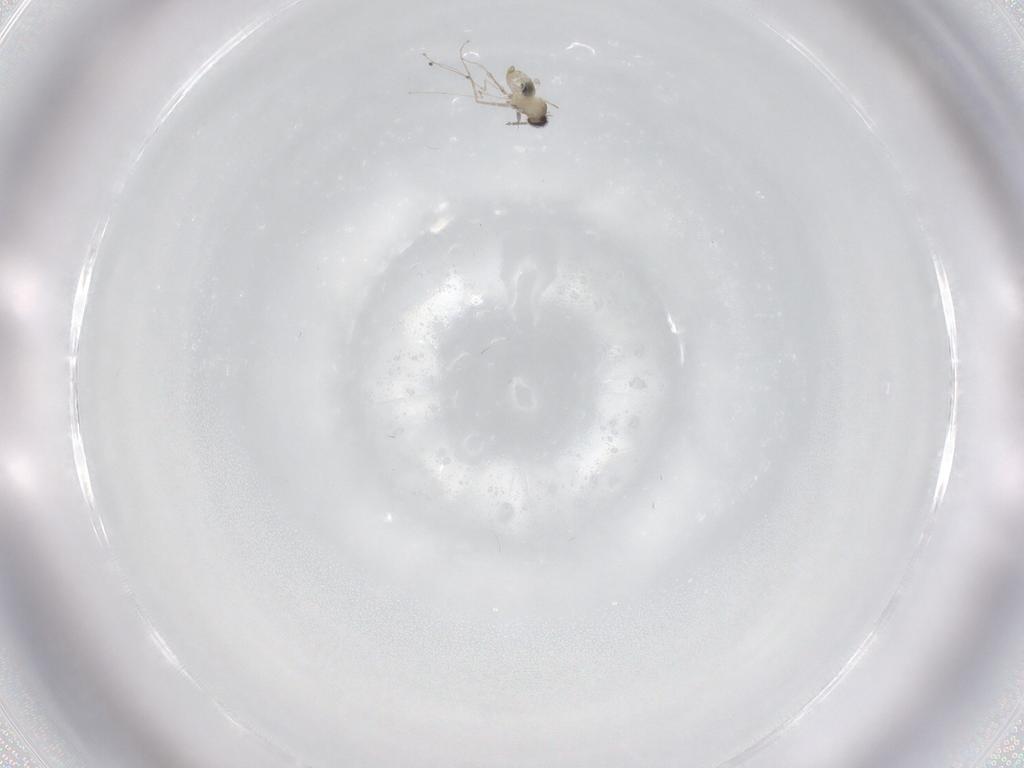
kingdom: Animalia
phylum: Arthropoda
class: Insecta
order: Diptera
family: Cecidomyiidae
